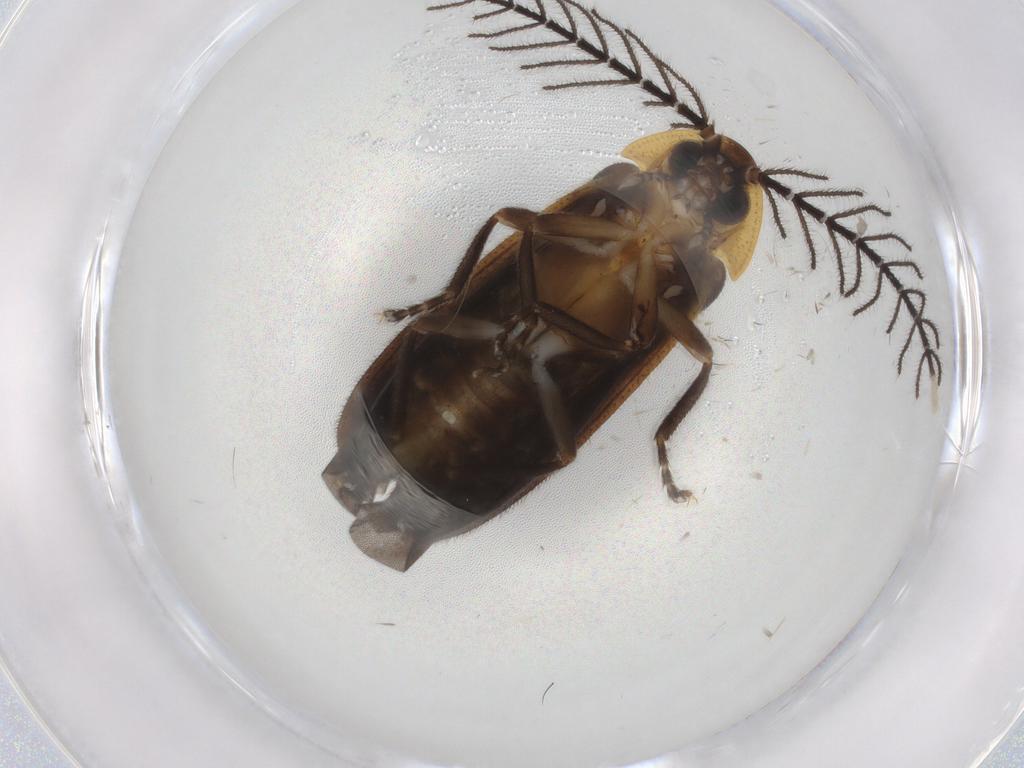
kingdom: Animalia
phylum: Arthropoda
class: Insecta
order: Coleoptera
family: Lampyridae
